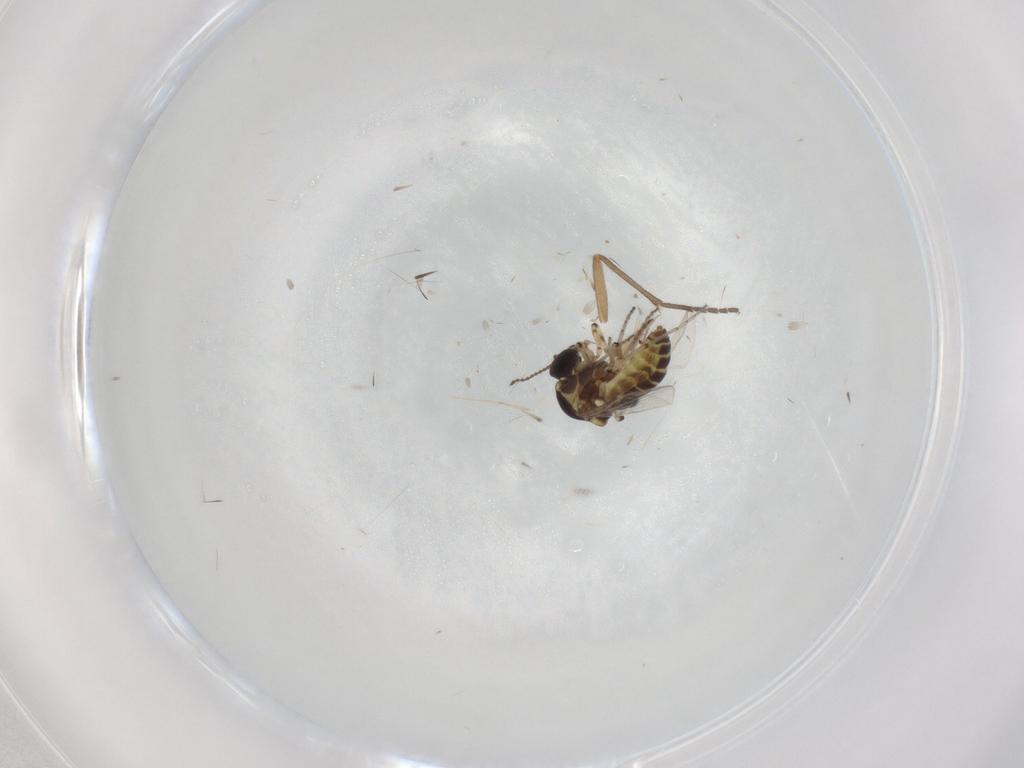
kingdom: Animalia
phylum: Arthropoda
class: Insecta
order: Diptera
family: Ceratopogonidae
